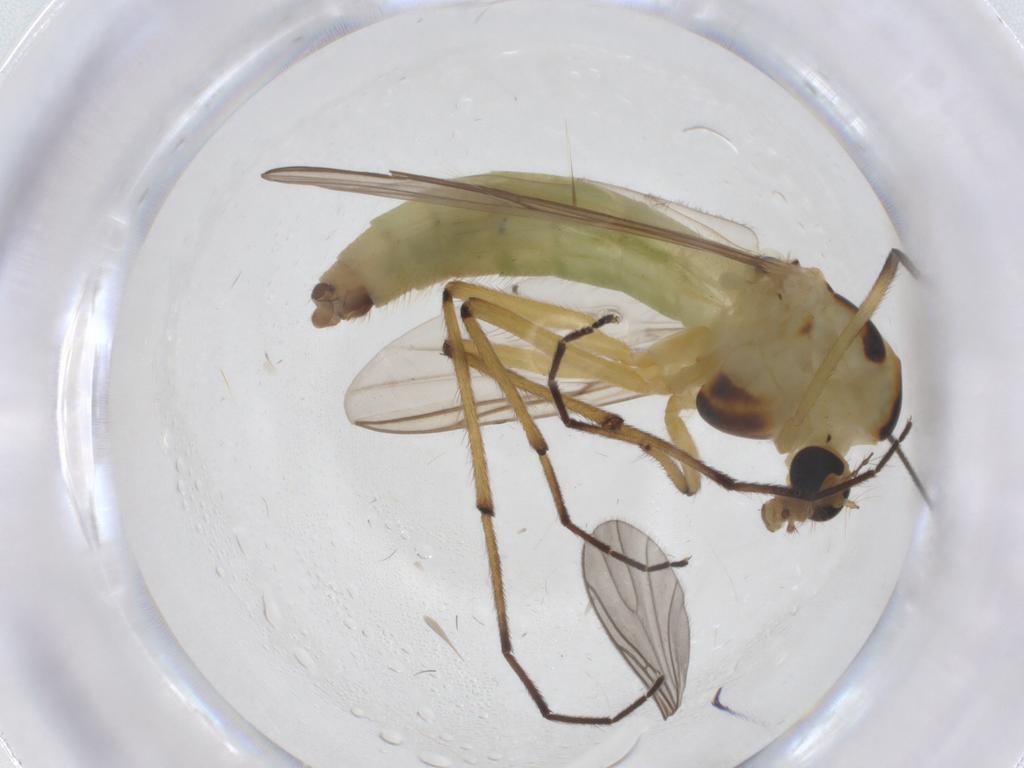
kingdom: Animalia
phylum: Arthropoda
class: Insecta
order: Diptera
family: Chironomidae
